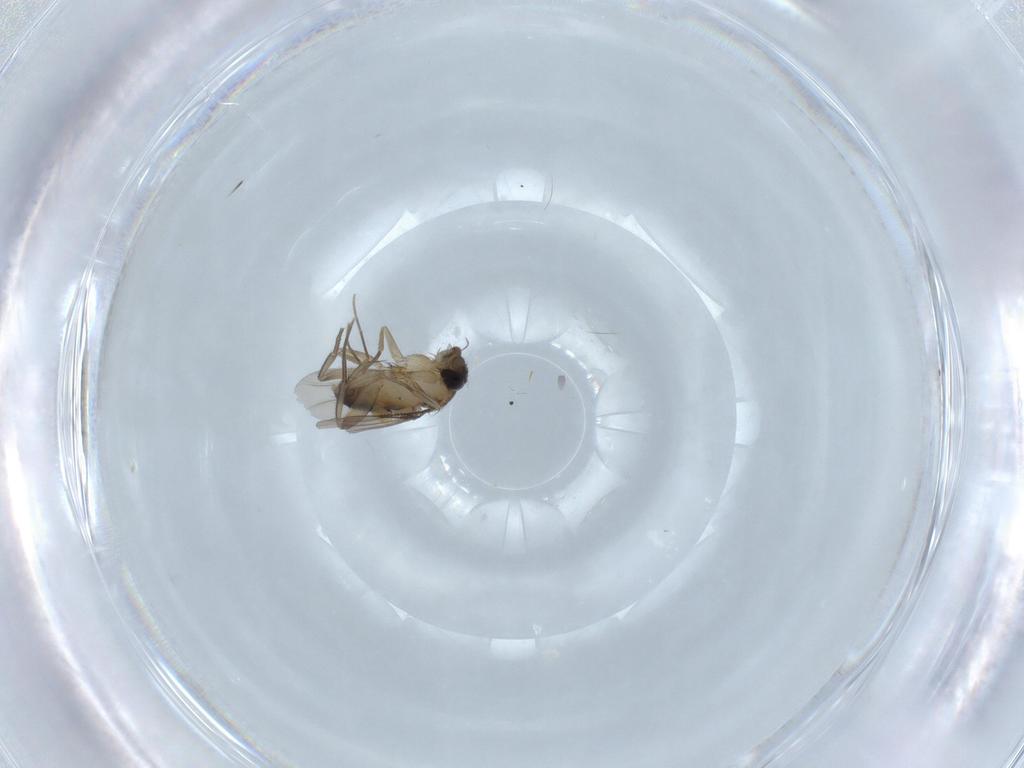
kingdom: Animalia
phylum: Arthropoda
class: Insecta
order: Diptera
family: Phoridae
